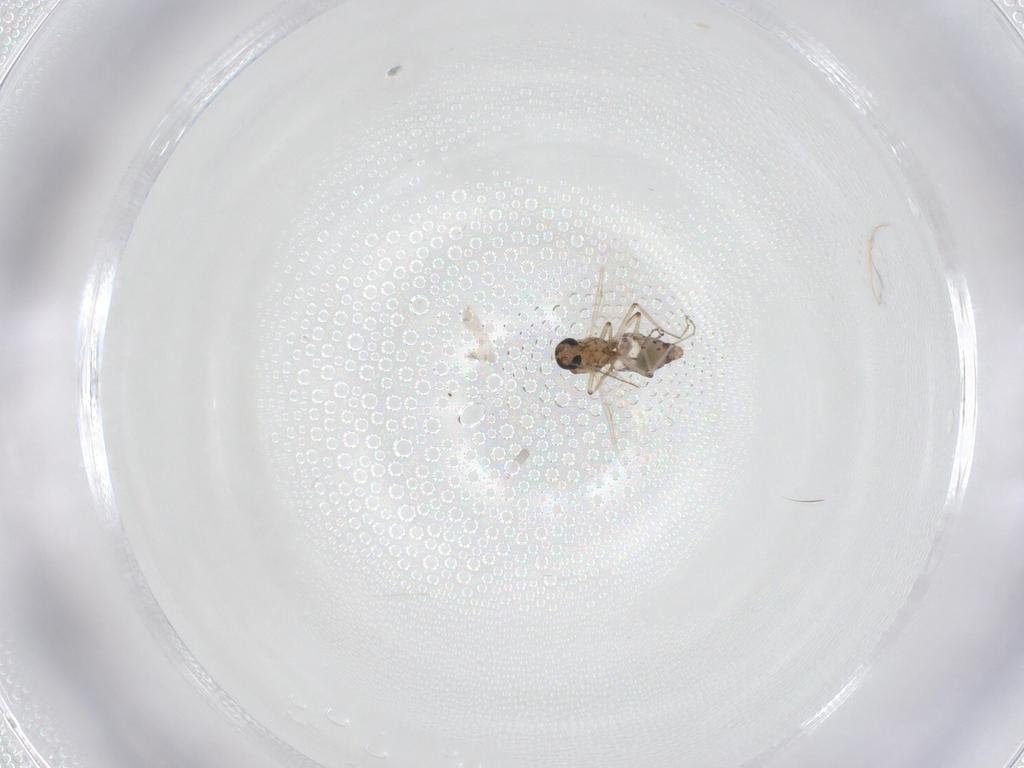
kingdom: Animalia
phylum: Arthropoda
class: Insecta
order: Diptera
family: Ceratopogonidae
